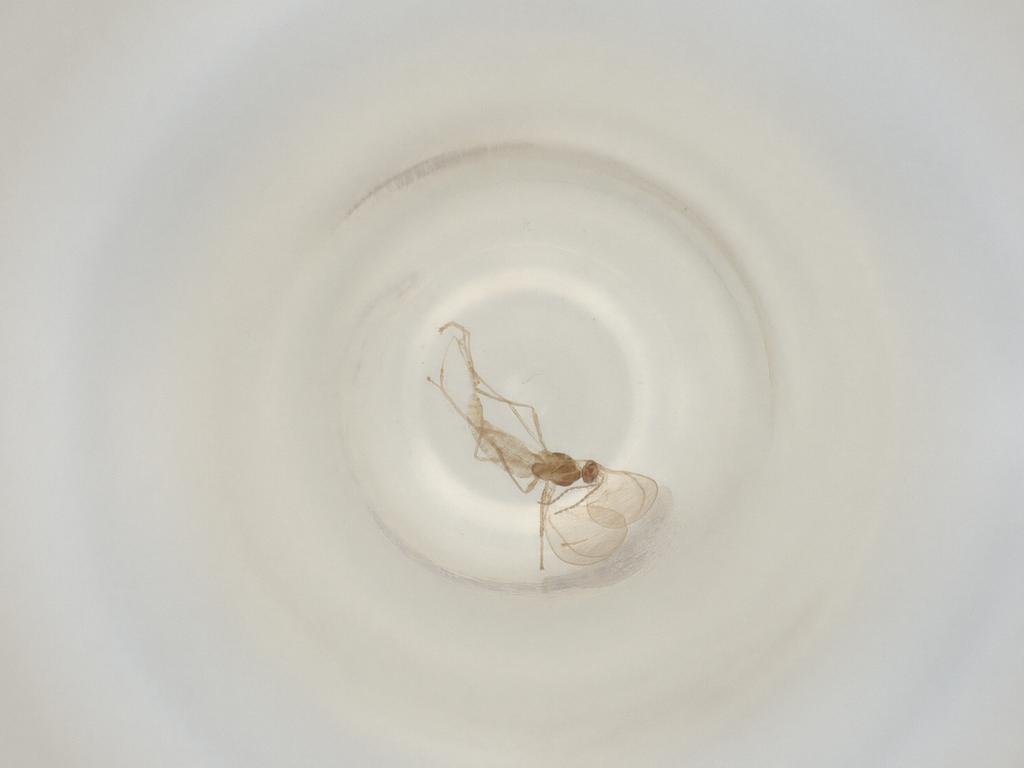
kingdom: Animalia
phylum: Arthropoda
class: Insecta
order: Diptera
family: Cecidomyiidae
